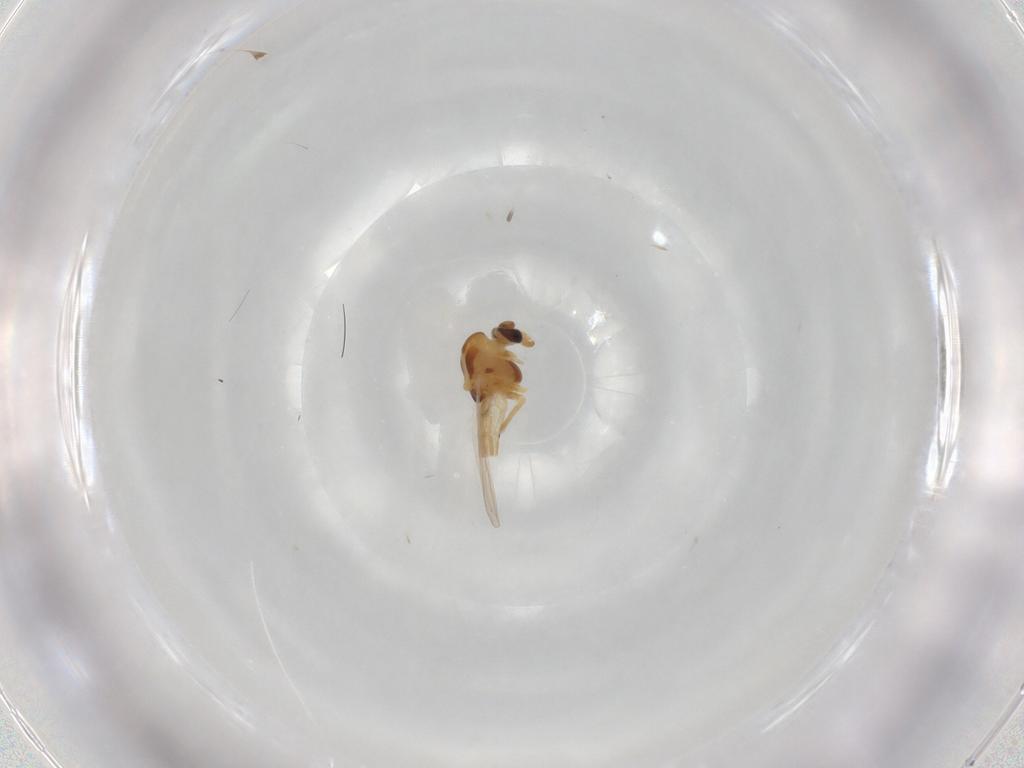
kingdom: Animalia
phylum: Arthropoda
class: Insecta
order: Diptera
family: Chironomidae
